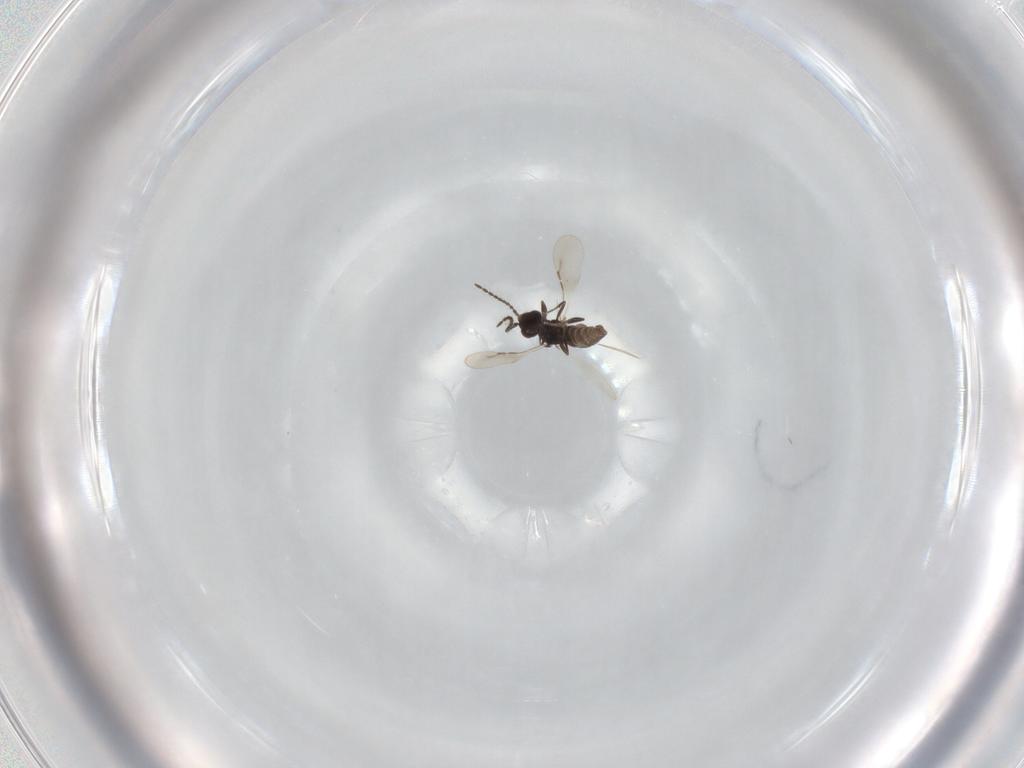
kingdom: Animalia
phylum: Arthropoda
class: Insecta
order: Hymenoptera
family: Ceraphronidae
